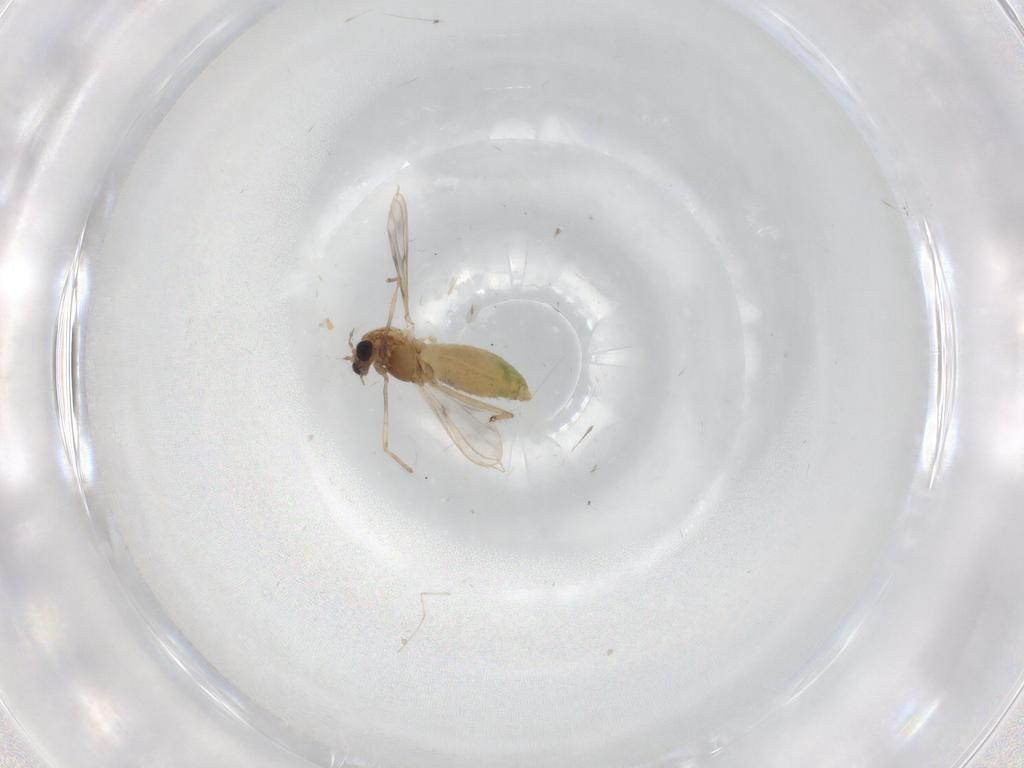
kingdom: Animalia
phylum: Arthropoda
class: Insecta
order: Diptera
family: Chironomidae
